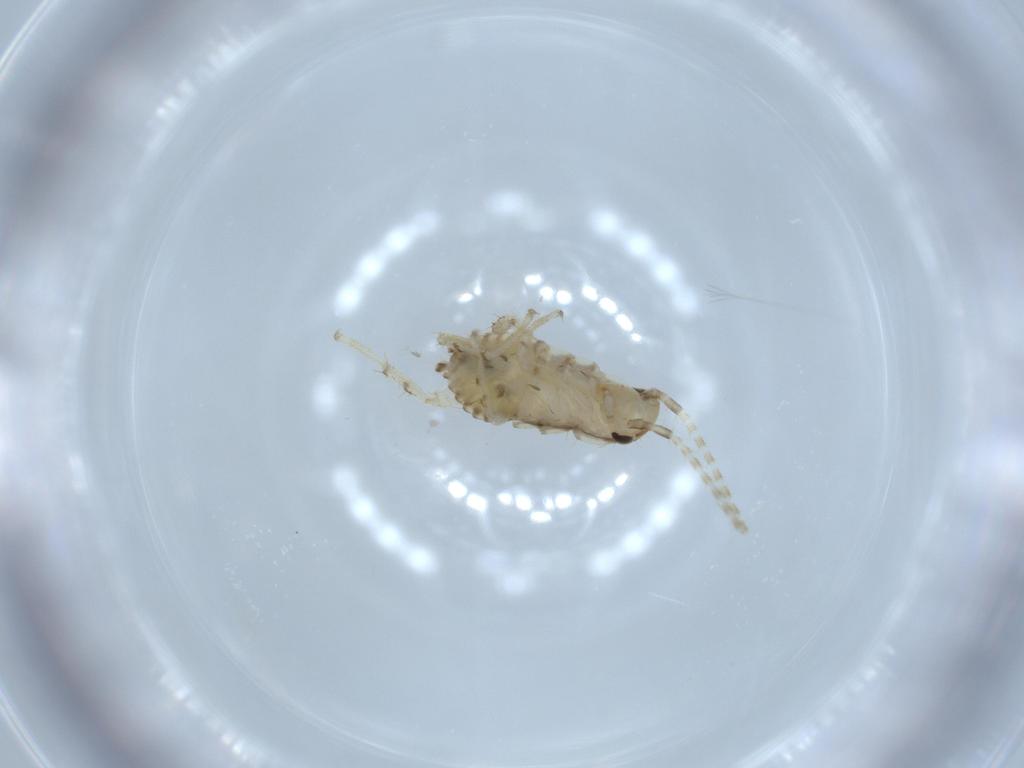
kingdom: Animalia
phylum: Arthropoda
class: Insecta
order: Blattodea
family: Ectobiidae
